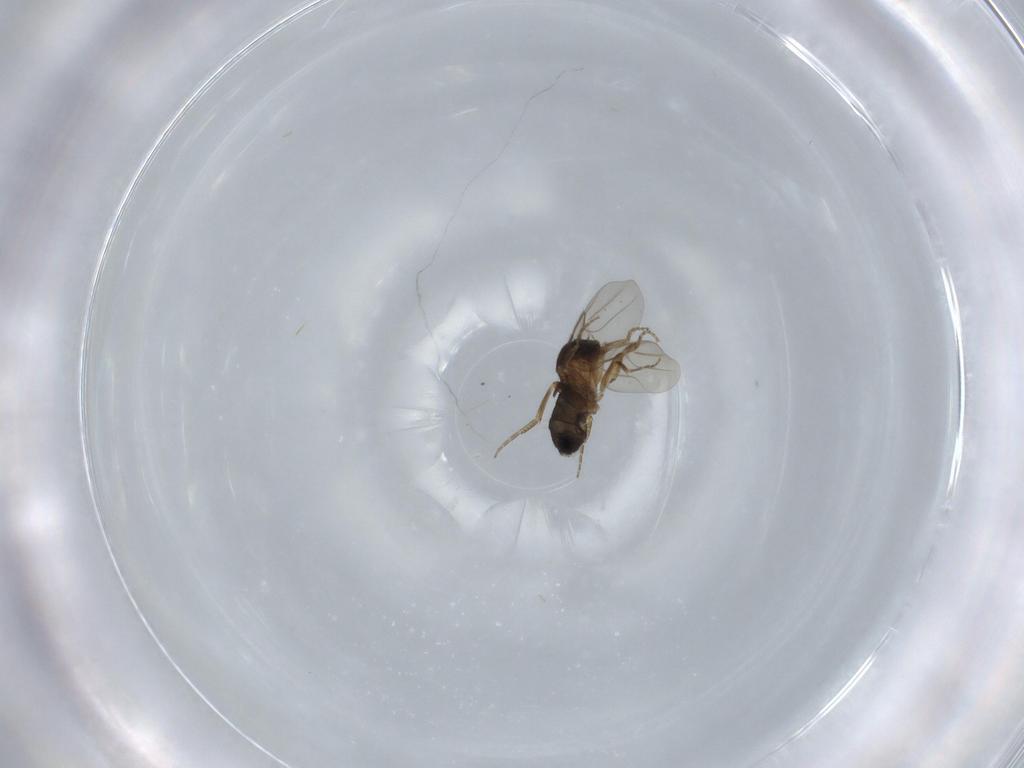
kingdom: Animalia
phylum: Arthropoda
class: Insecta
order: Diptera
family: Phoridae
